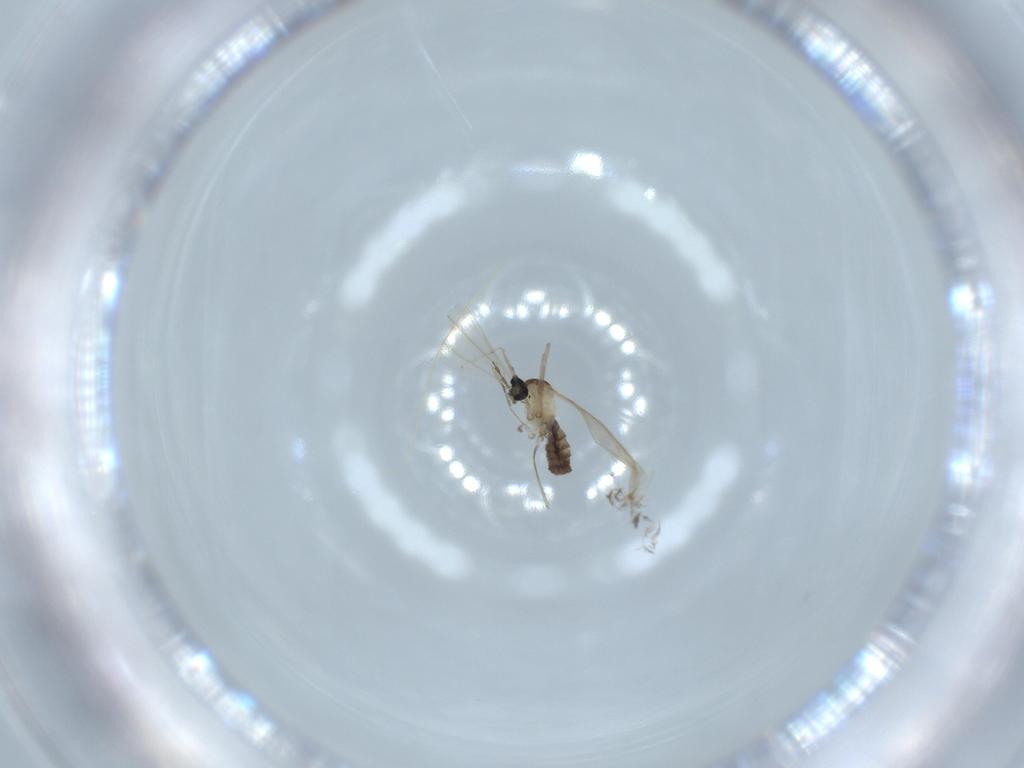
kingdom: Animalia
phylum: Arthropoda
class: Insecta
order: Diptera
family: Cecidomyiidae
